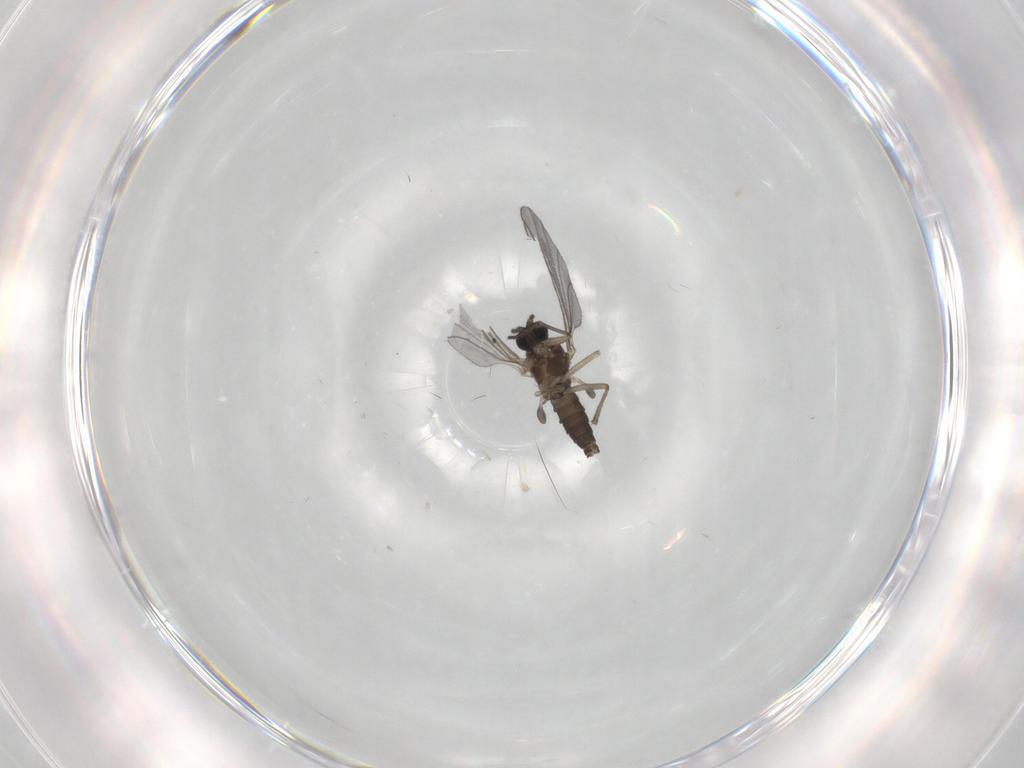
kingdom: Animalia
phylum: Arthropoda
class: Insecta
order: Diptera
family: Sciaridae
